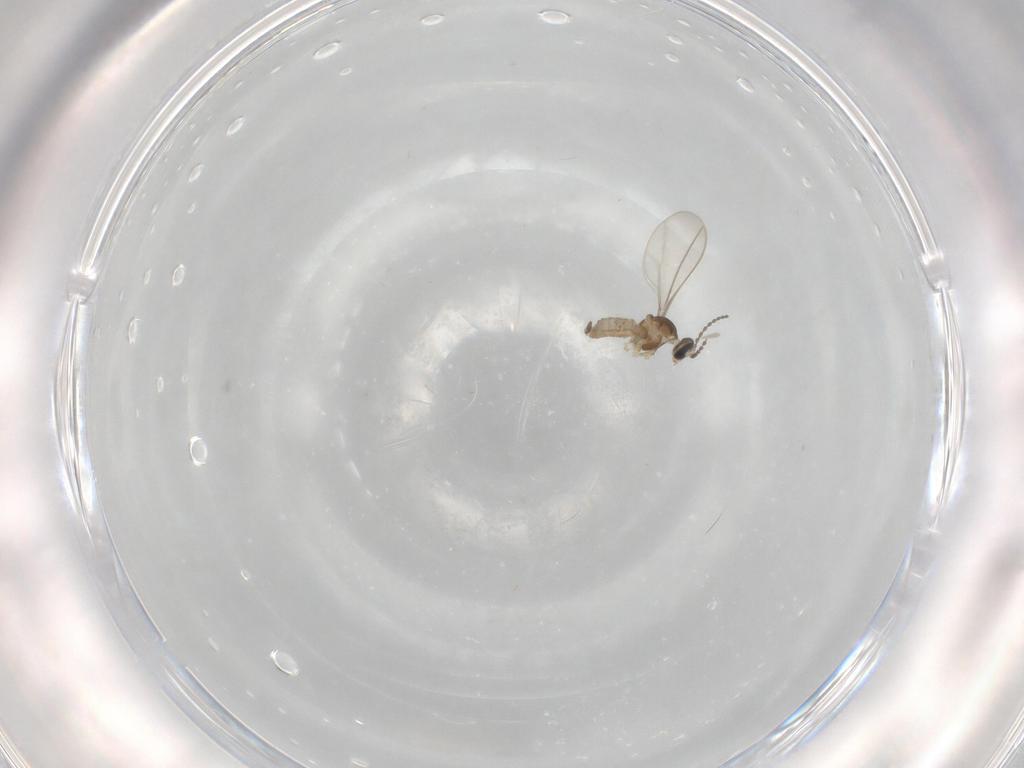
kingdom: Animalia
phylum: Arthropoda
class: Insecta
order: Diptera
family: Cecidomyiidae
